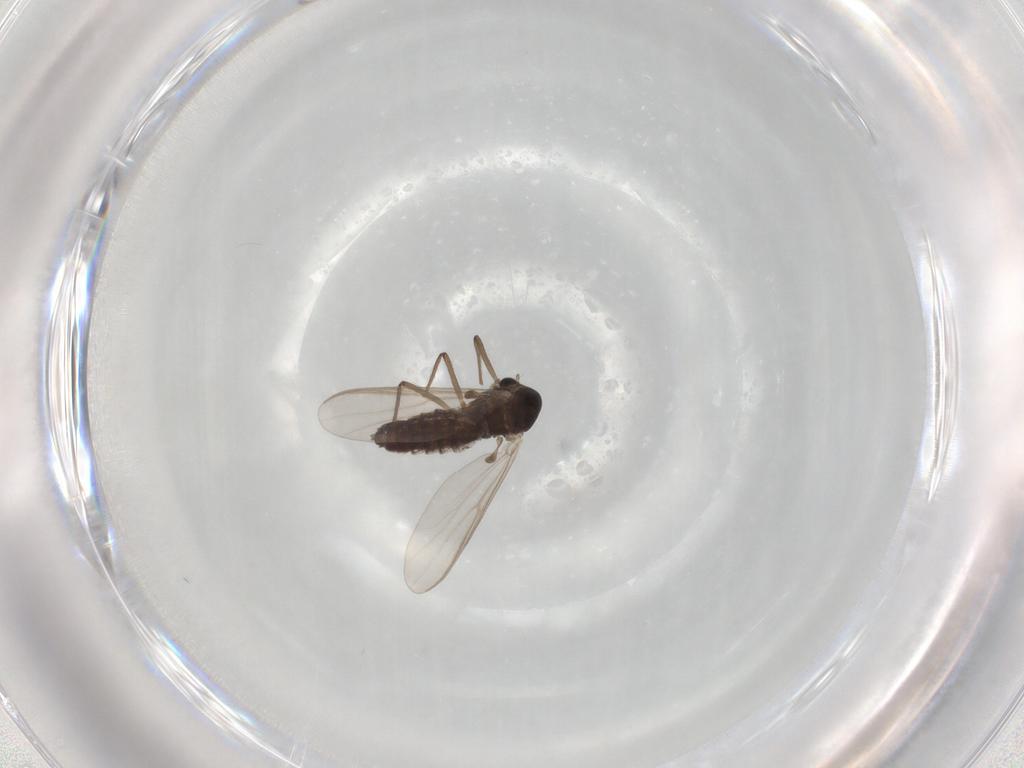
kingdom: Animalia
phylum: Arthropoda
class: Insecta
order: Diptera
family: Chironomidae
